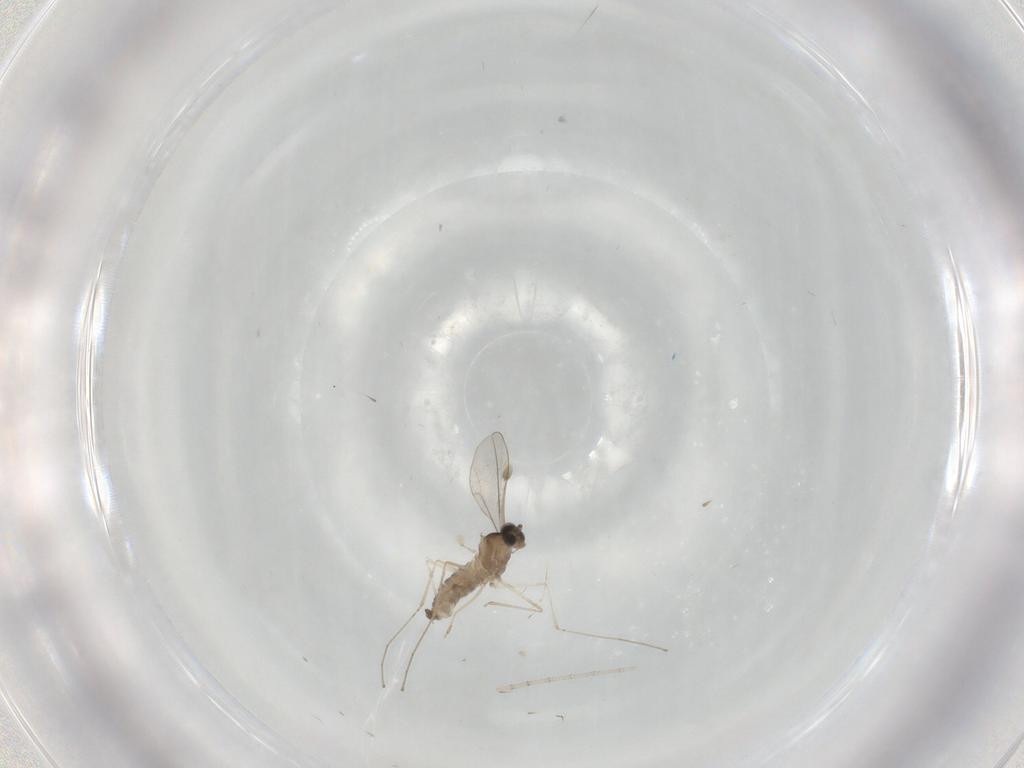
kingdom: Animalia
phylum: Arthropoda
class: Insecta
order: Diptera
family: Cecidomyiidae
